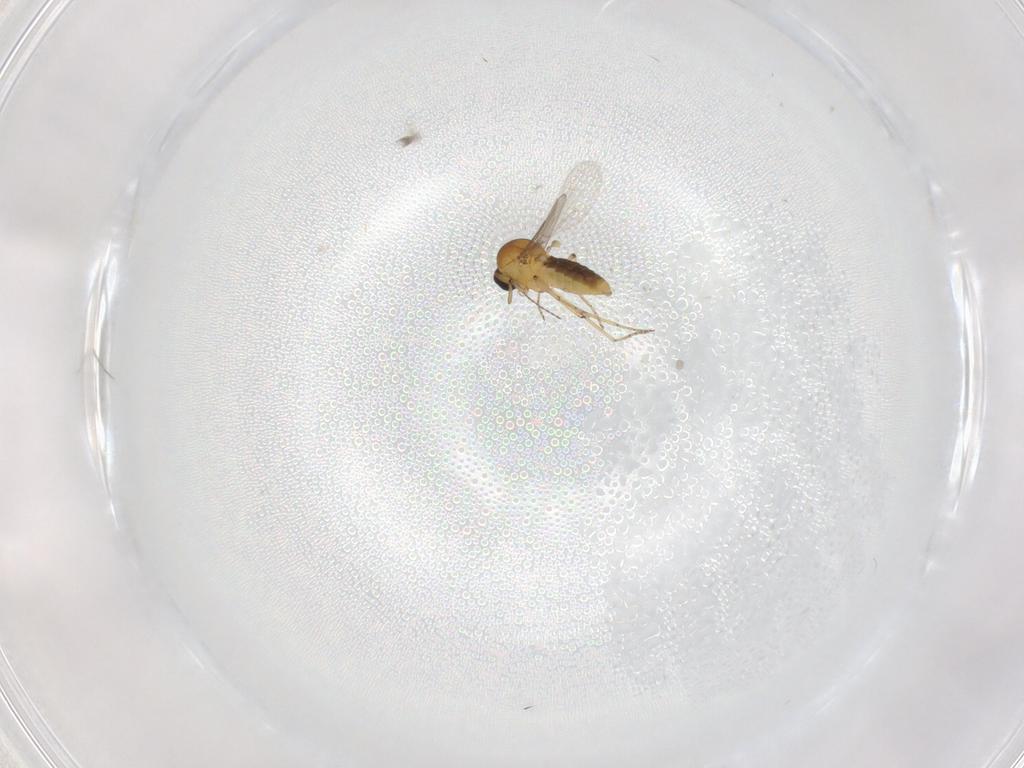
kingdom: Animalia
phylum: Arthropoda
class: Insecta
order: Diptera
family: Ceratopogonidae
